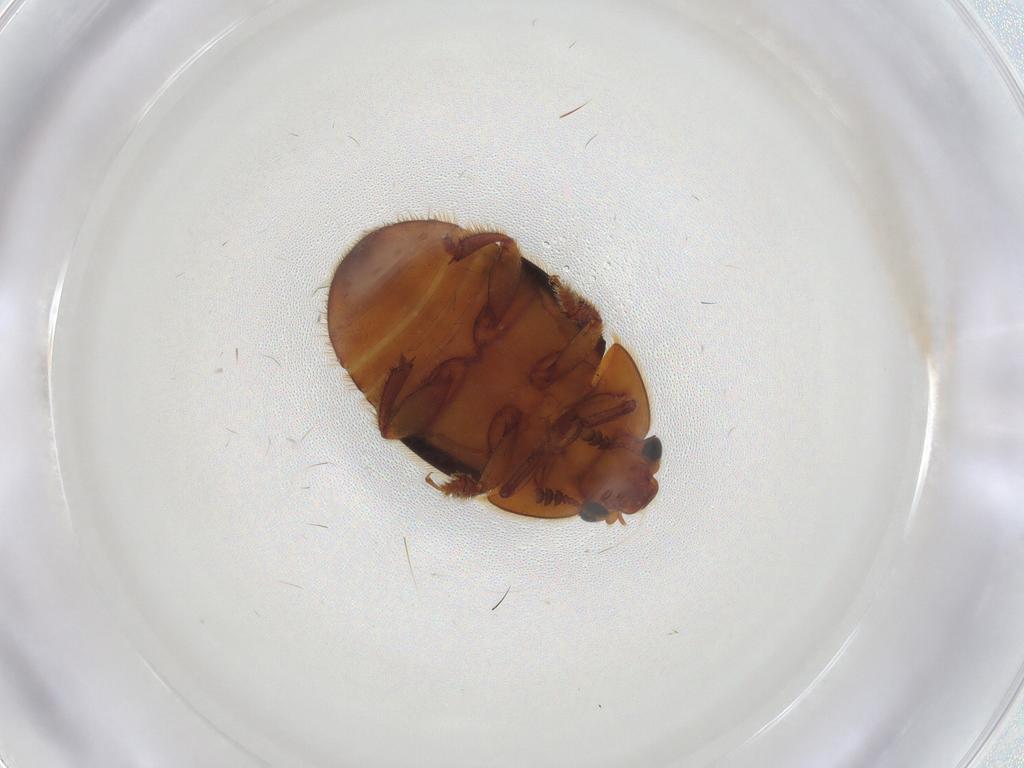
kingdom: Animalia
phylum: Arthropoda
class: Insecta
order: Coleoptera
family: Nitidulidae
